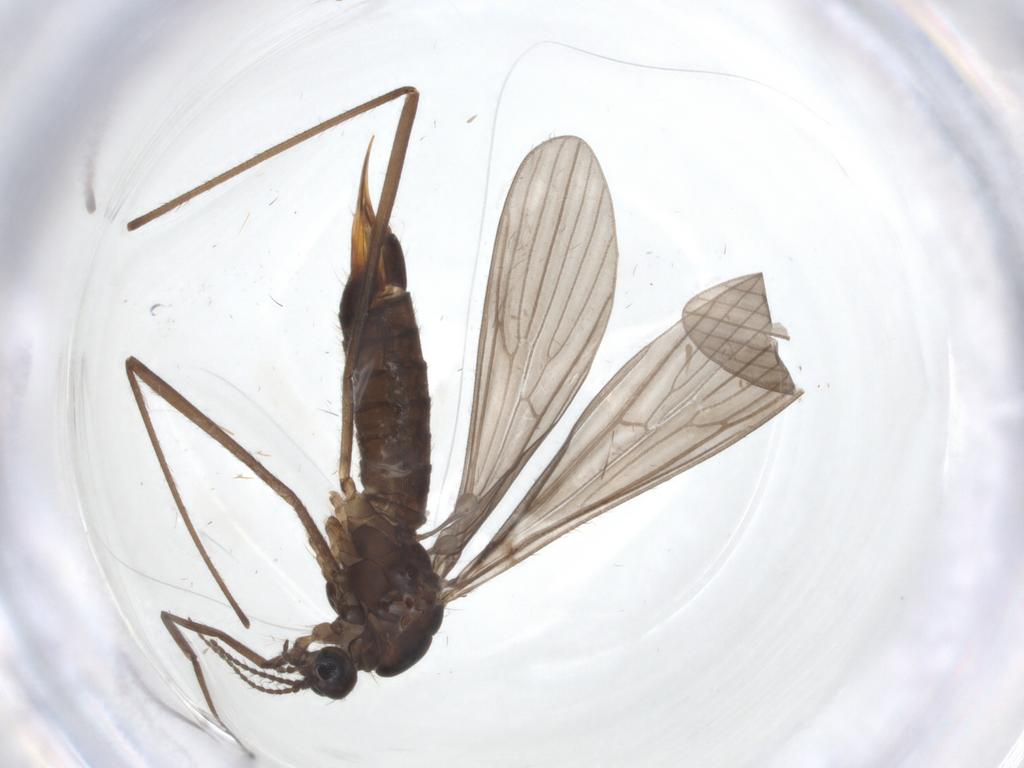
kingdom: Animalia
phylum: Arthropoda
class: Insecta
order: Diptera
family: Limoniidae
